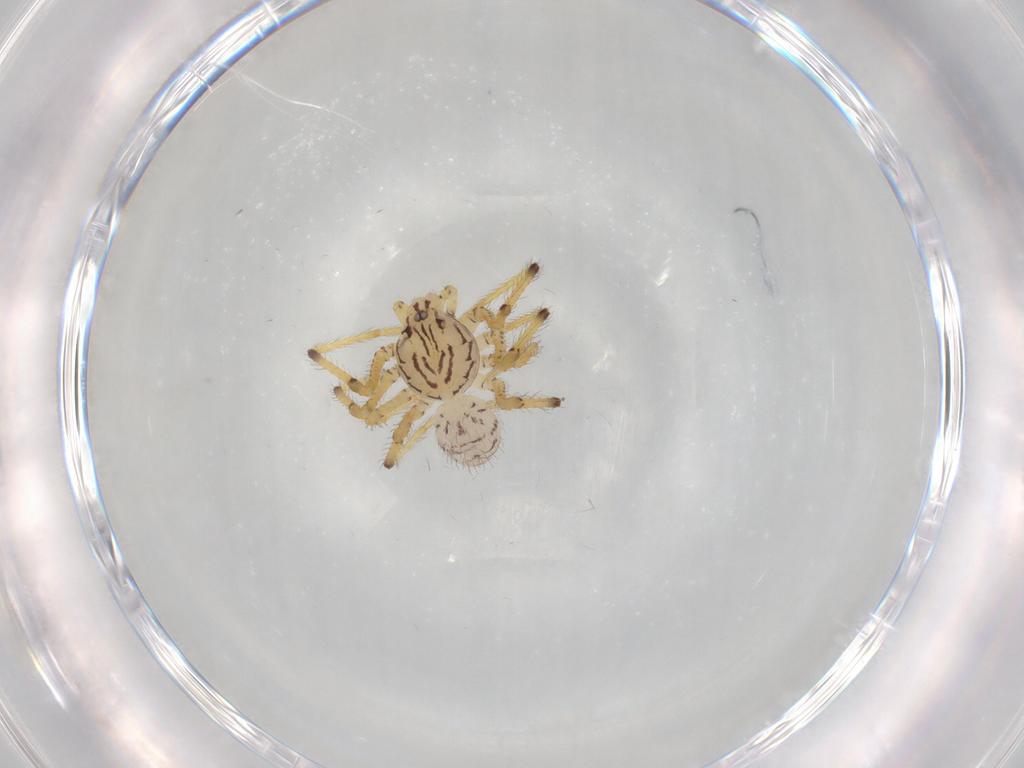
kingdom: Animalia
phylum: Arthropoda
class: Arachnida
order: Araneae
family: Scytodidae
